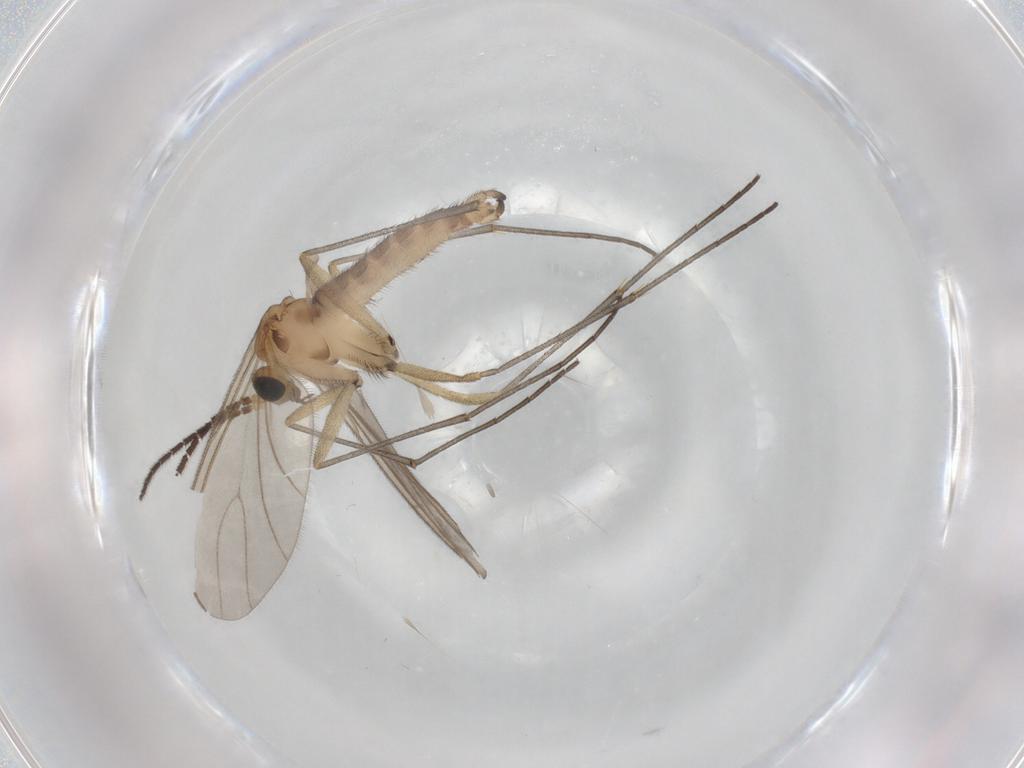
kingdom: Animalia
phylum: Arthropoda
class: Insecta
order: Diptera
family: Sciaridae
